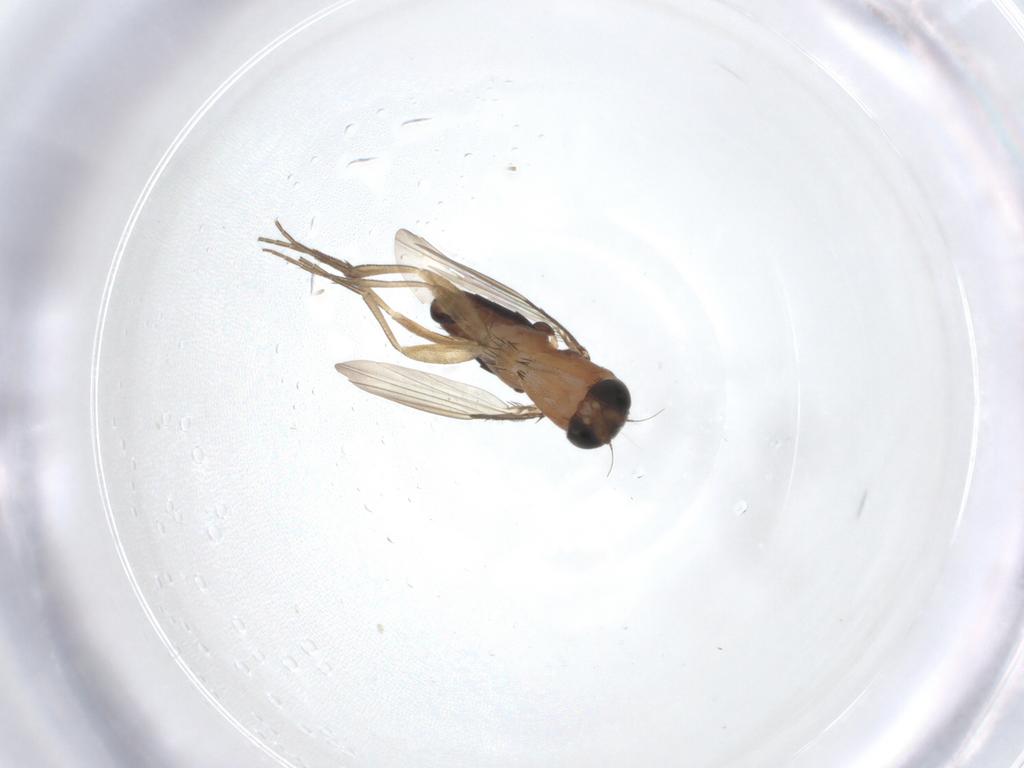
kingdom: Animalia
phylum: Arthropoda
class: Insecta
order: Diptera
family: Phoridae
